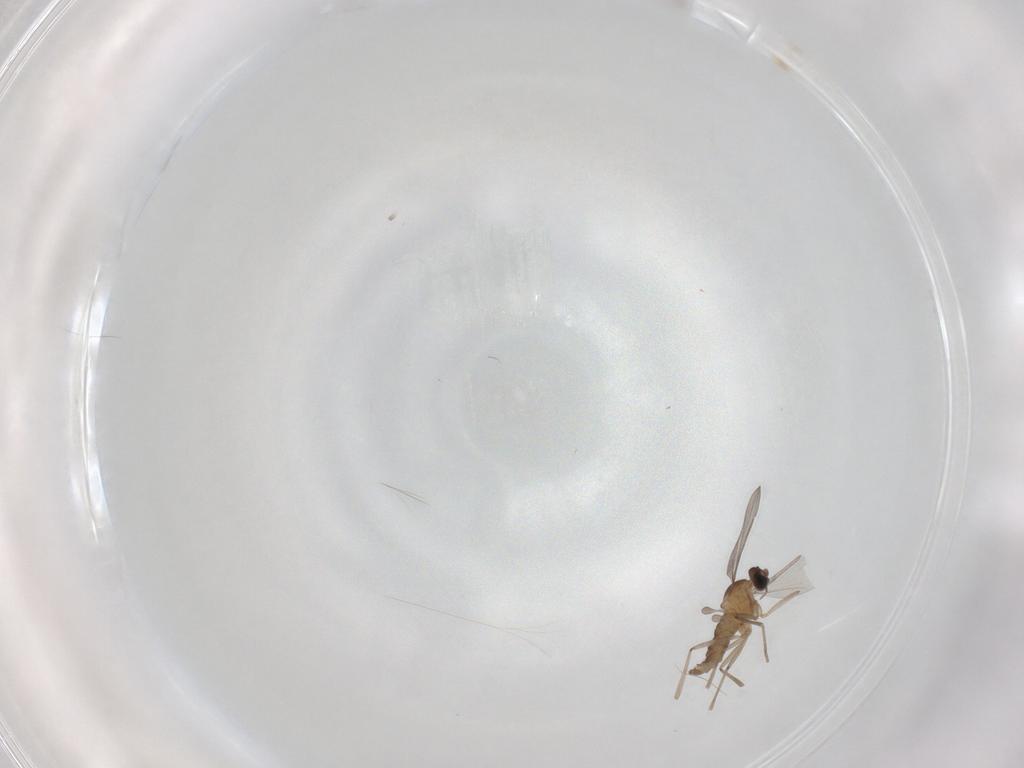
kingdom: Animalia
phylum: Arthropoda
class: Insecta
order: Diptera
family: Cecidomyiidae
